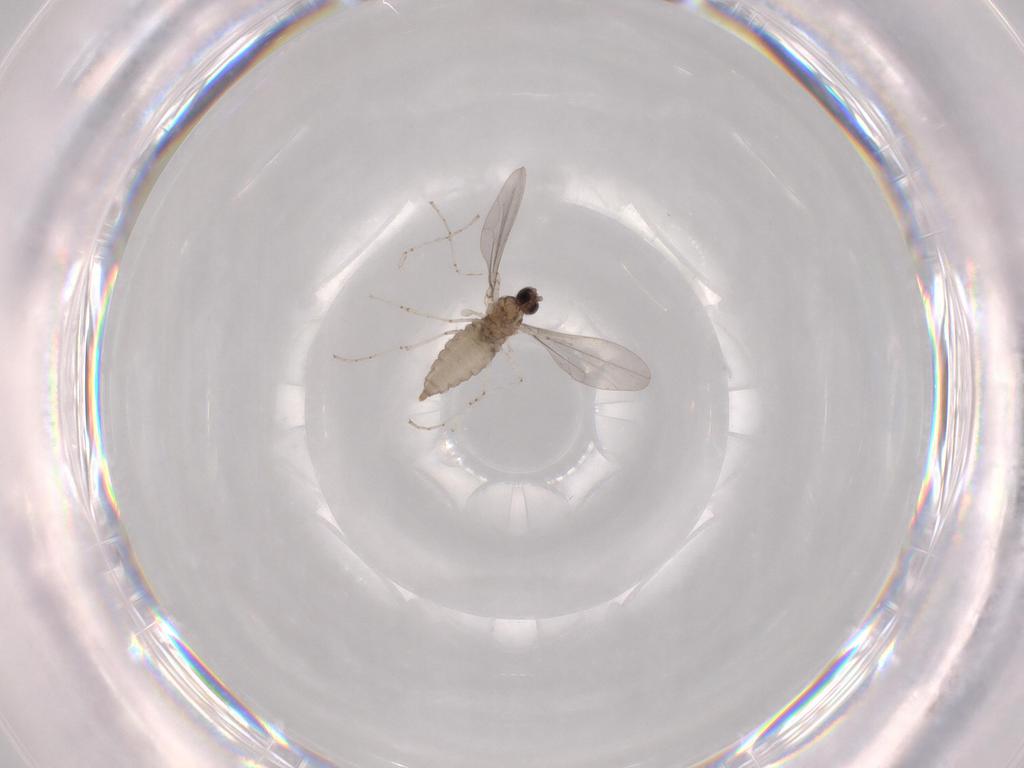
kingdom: Animalia
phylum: Arthropoda
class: Insecta
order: Diptera
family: Chironomidae
